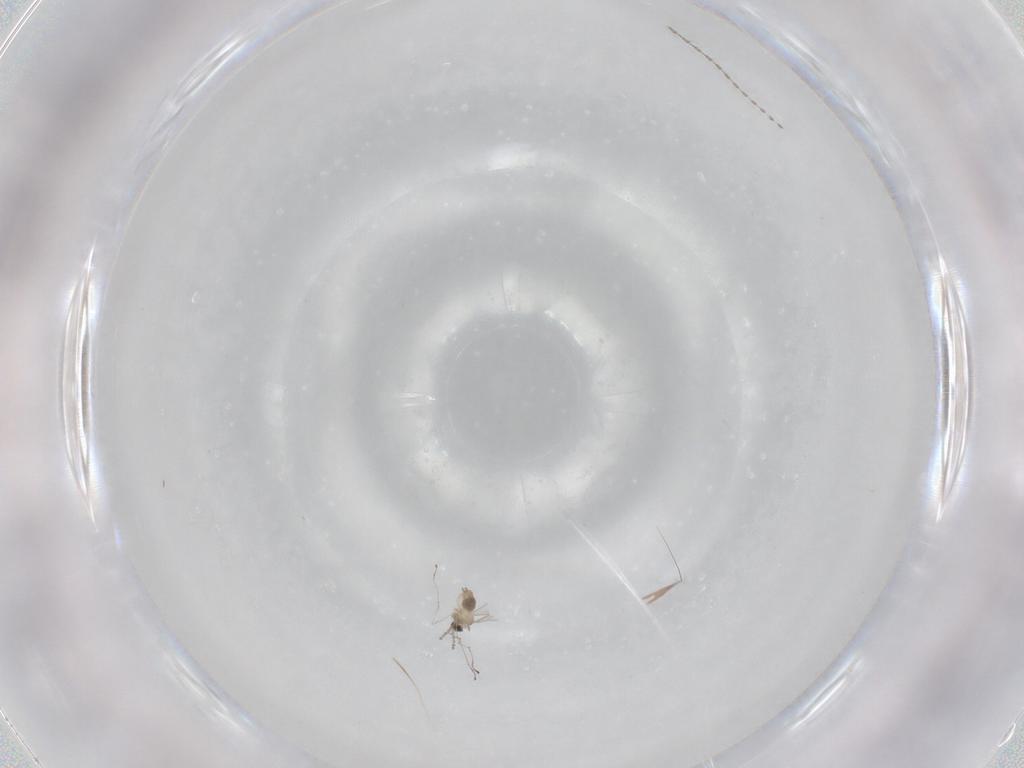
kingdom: Animalia
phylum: Arthropoda
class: Insecta
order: Diptera
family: Cecidomyiidae
